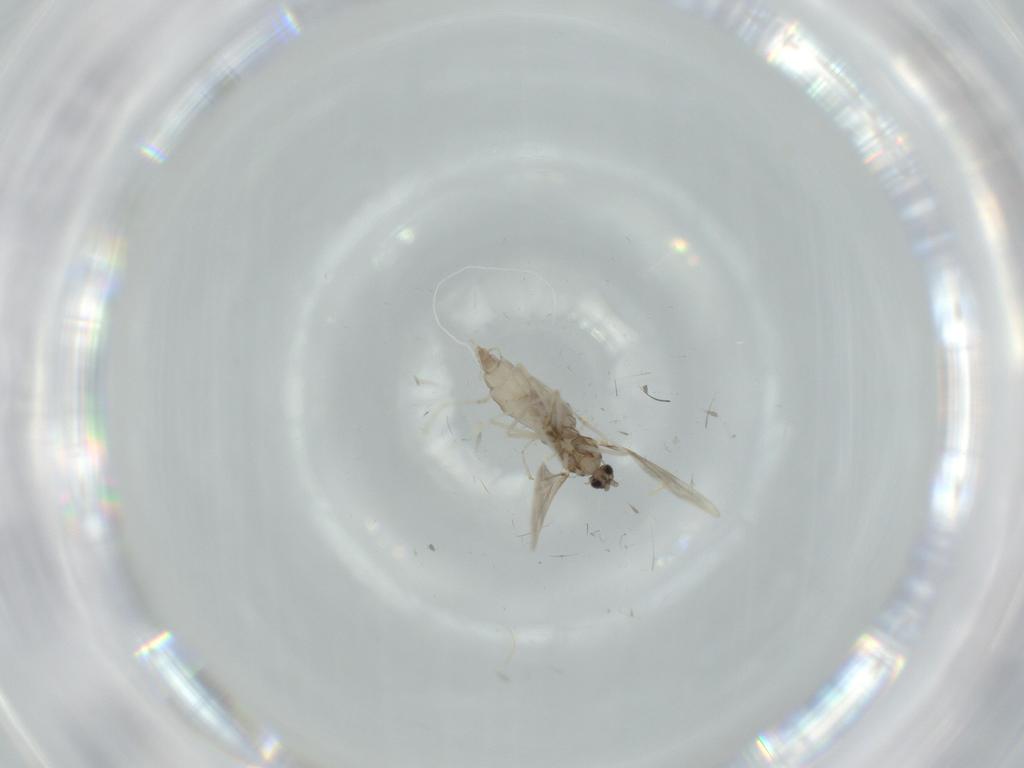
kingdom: Animalia
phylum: Arthropoda
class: Insecta
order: Diptera
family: Cecidomyiidae
